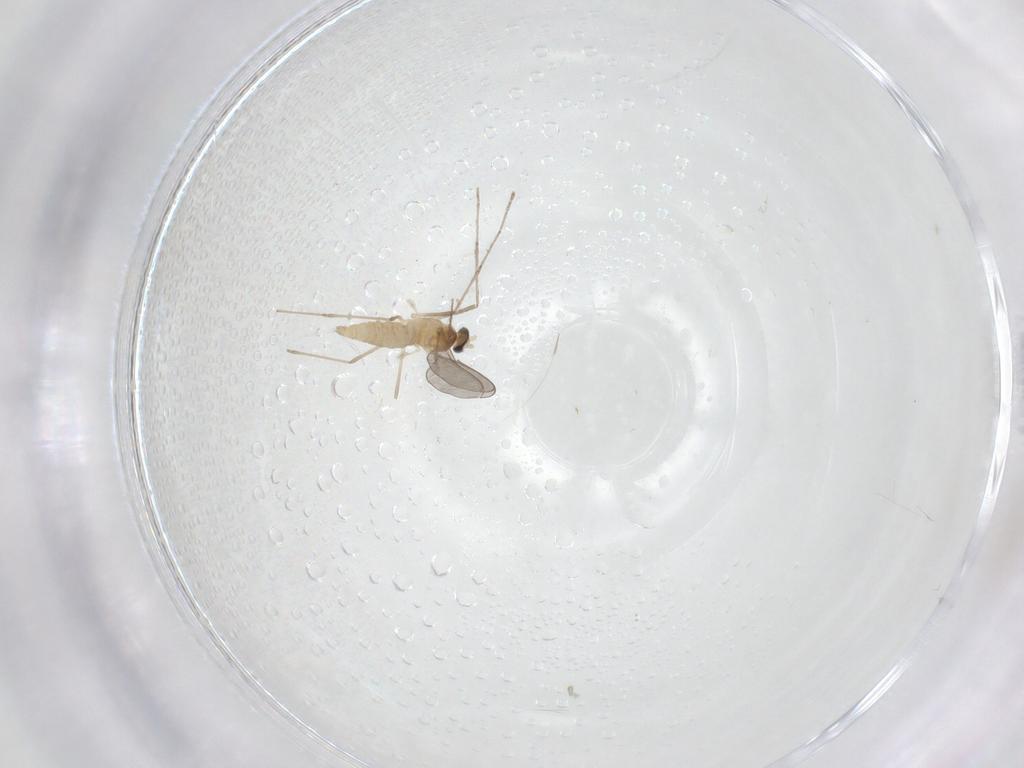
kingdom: Animalia
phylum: Arthropoda
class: Insecta
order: Diptera
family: Cecidomyiidae
